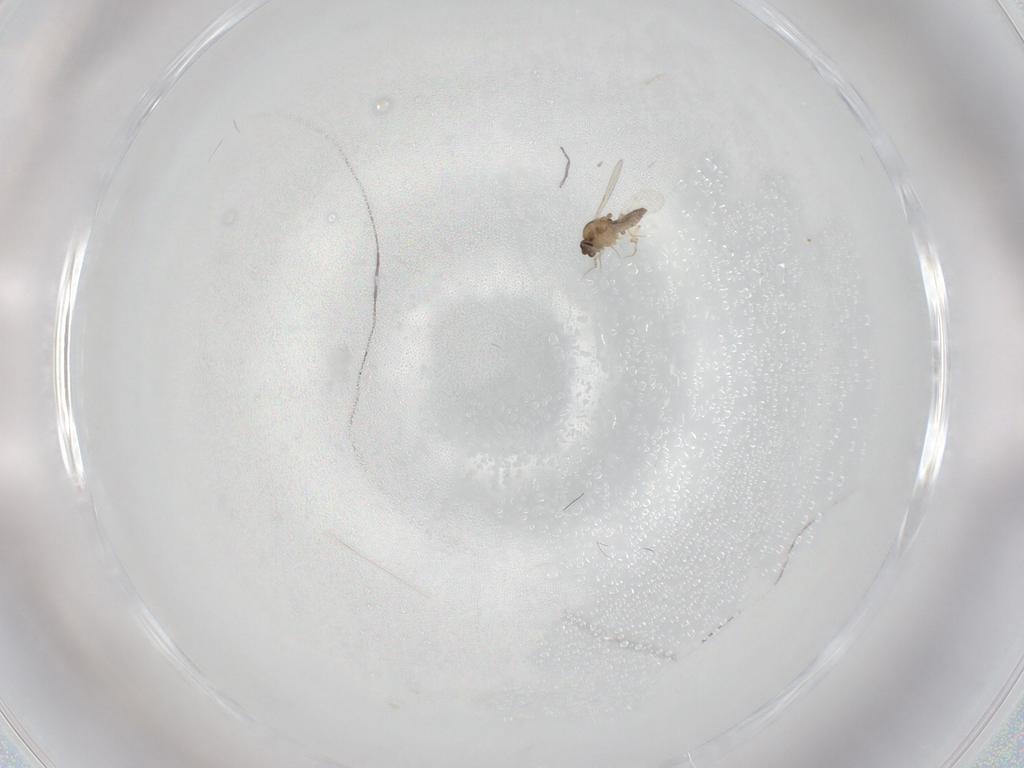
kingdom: Animalia
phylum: Arthropoda
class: Insecta
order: Diptera
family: Ceratopogonidae
